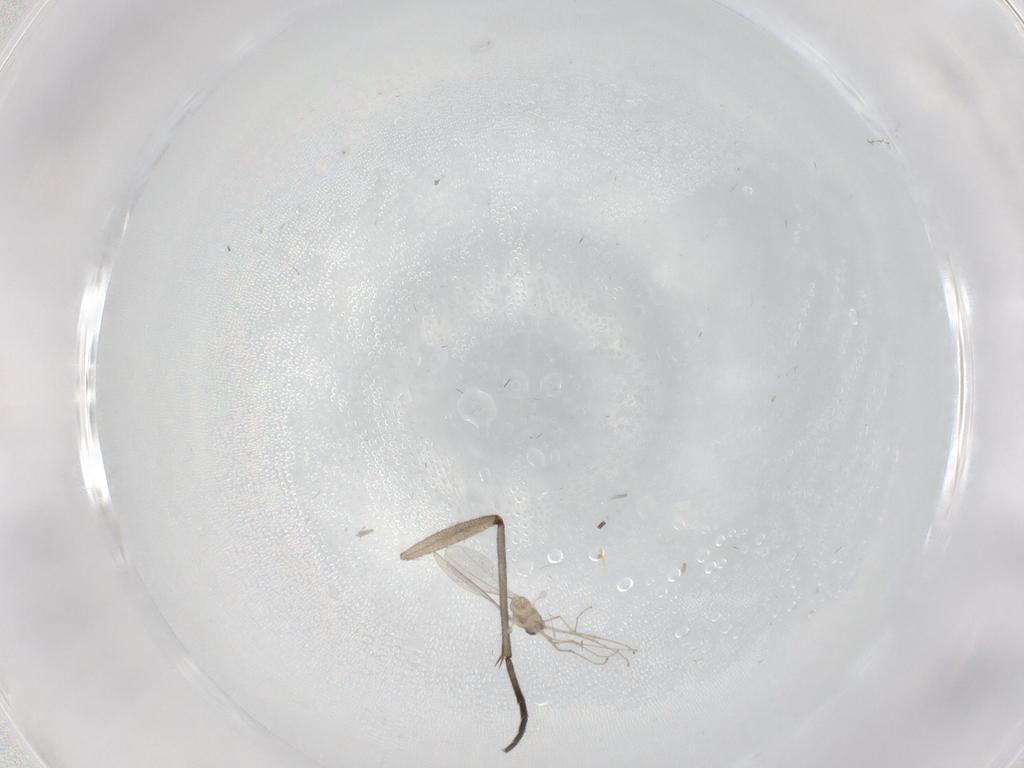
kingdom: Animalia
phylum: Arthropoda
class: Insecta
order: Diptera
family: Sciaridae
